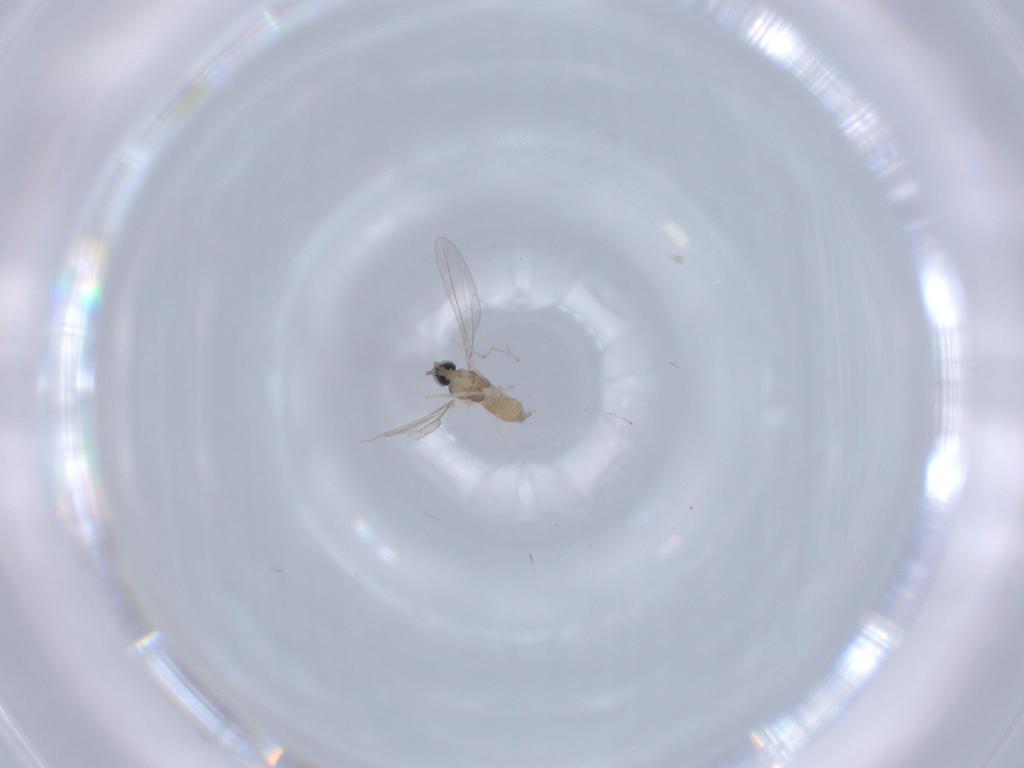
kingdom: Animalia
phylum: Arthropoda
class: Insecta
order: Diptera
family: Cecidomyiidae
